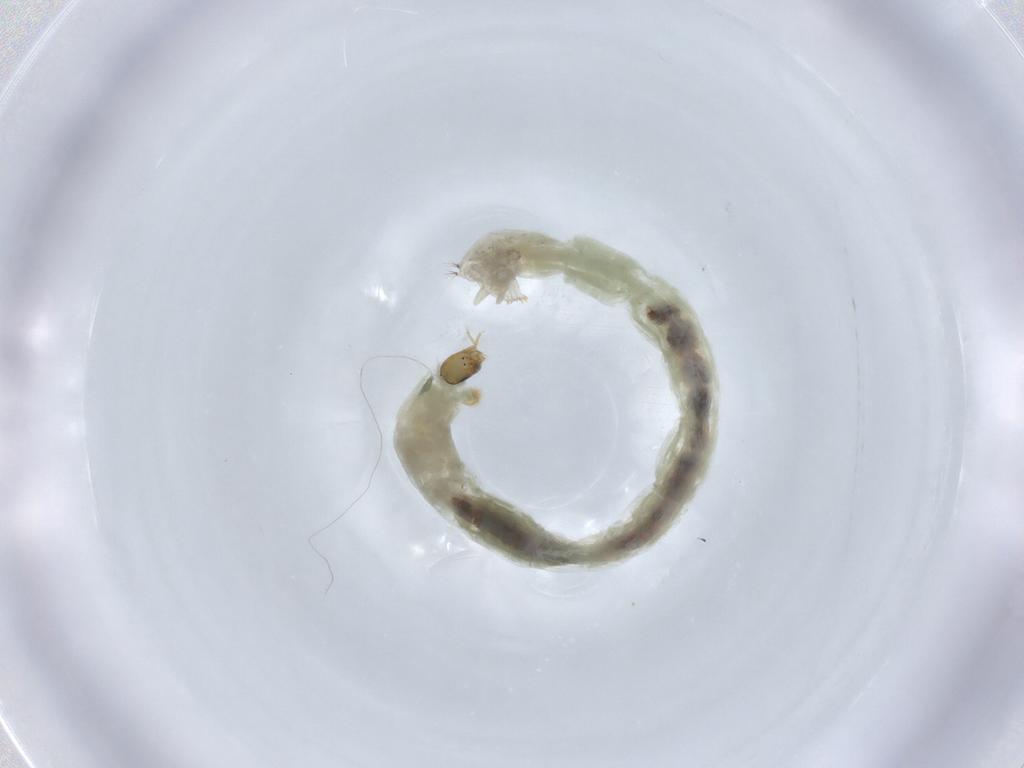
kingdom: Animalia
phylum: Arthropoda
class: Insecta
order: Diptera
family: Chironomidae
